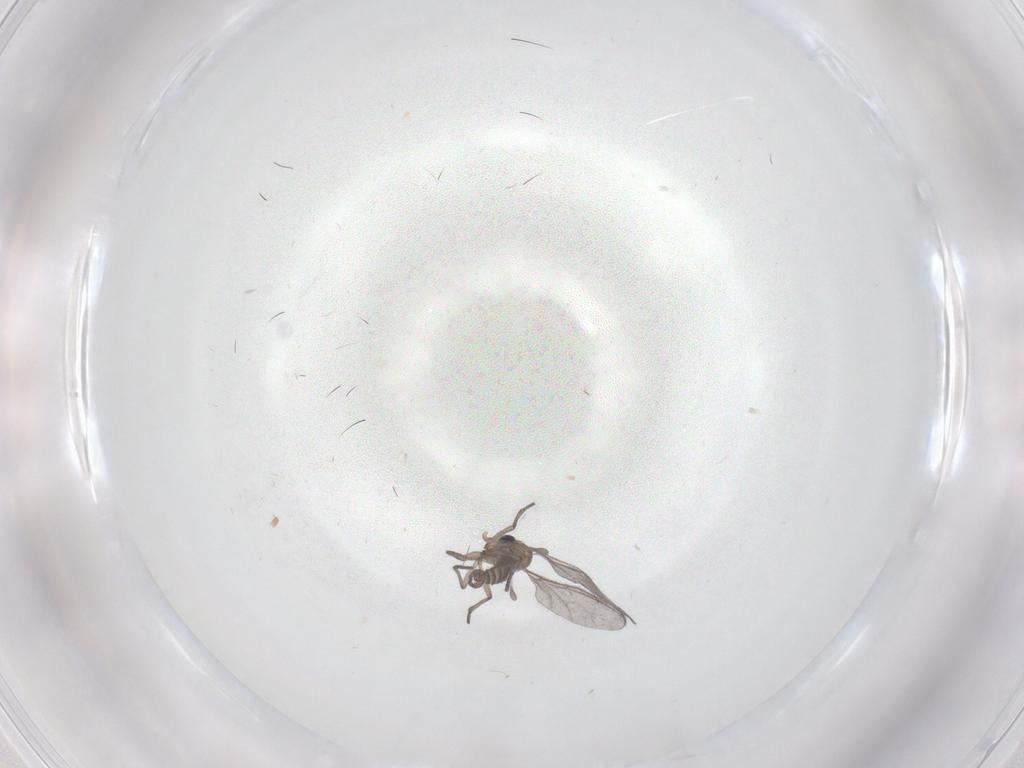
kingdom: Animalia
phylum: Arthropoda
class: Insecta
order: Diptera
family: Sciaridae
